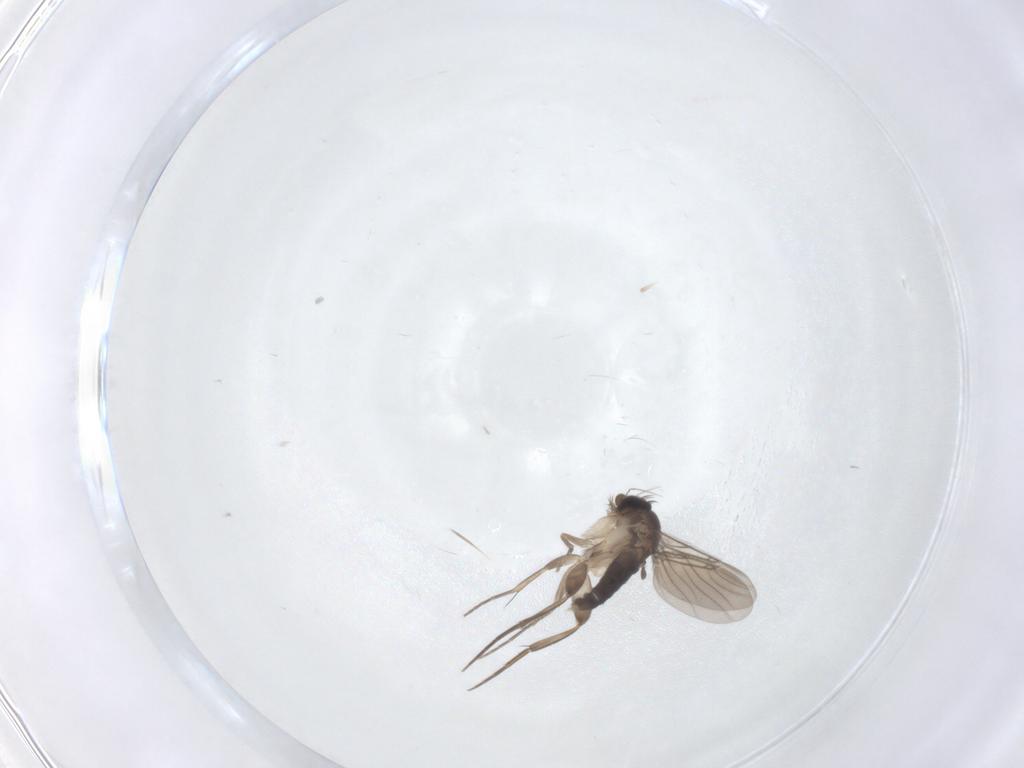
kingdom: Animalia
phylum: Arthropoda
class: Insecta
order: Diptera
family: Phoridae
